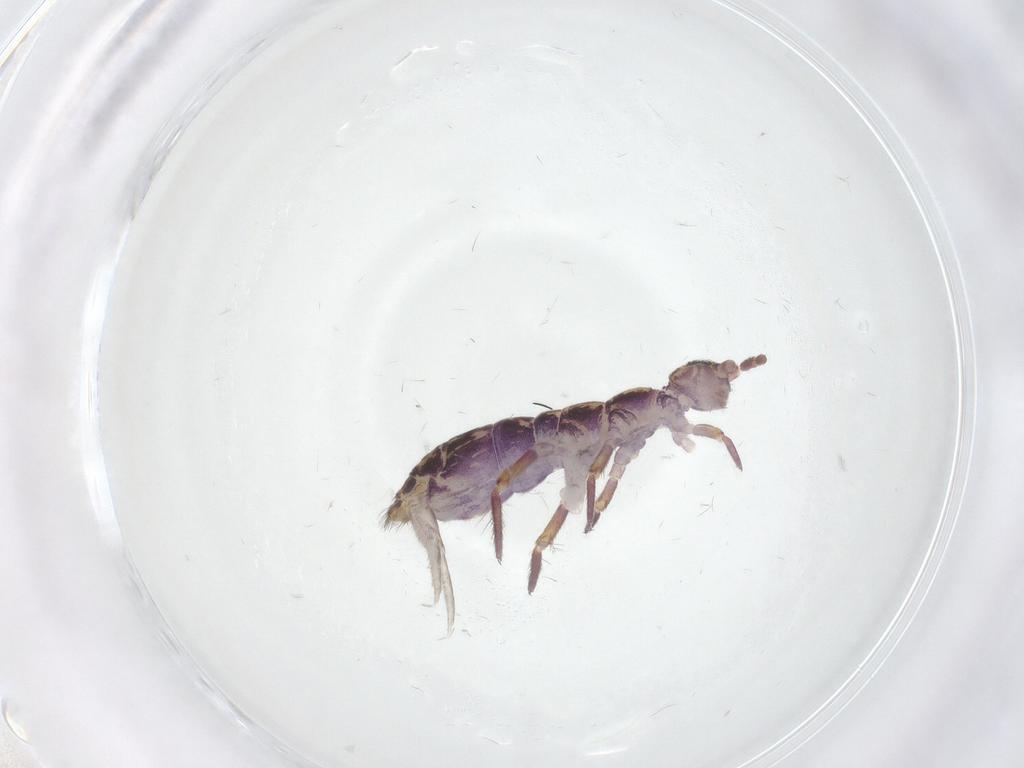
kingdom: Animalia
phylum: Arthropoda
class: Collembola
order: Entomobryomorpha
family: Isotomidae
